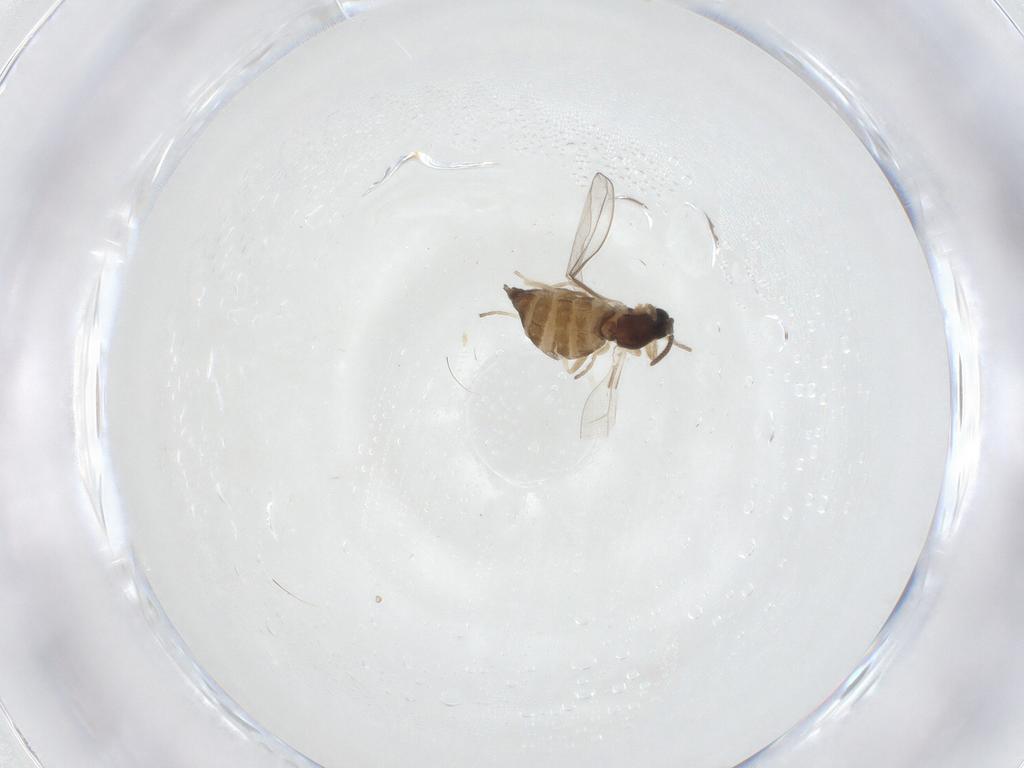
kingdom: Animalia
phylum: Arthropoda
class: Insecta
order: Diptera
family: Cecidomyiidae
